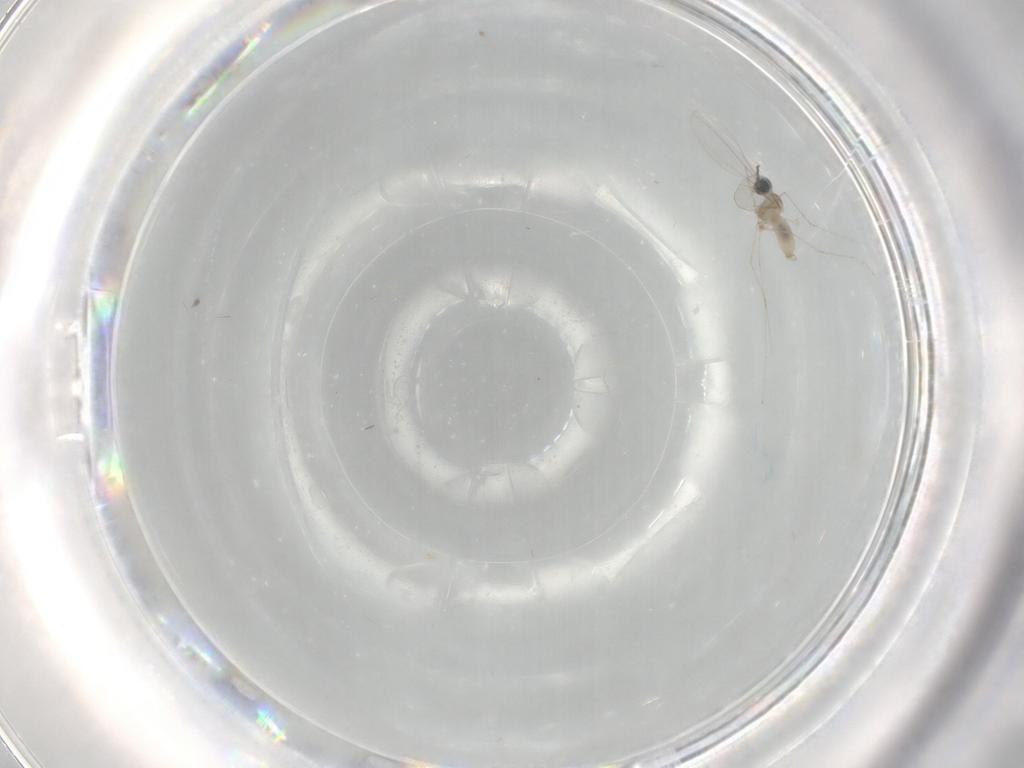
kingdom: Animalia
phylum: Arthropoda
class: Insecta
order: Diptera
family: Cecidomyiidae
